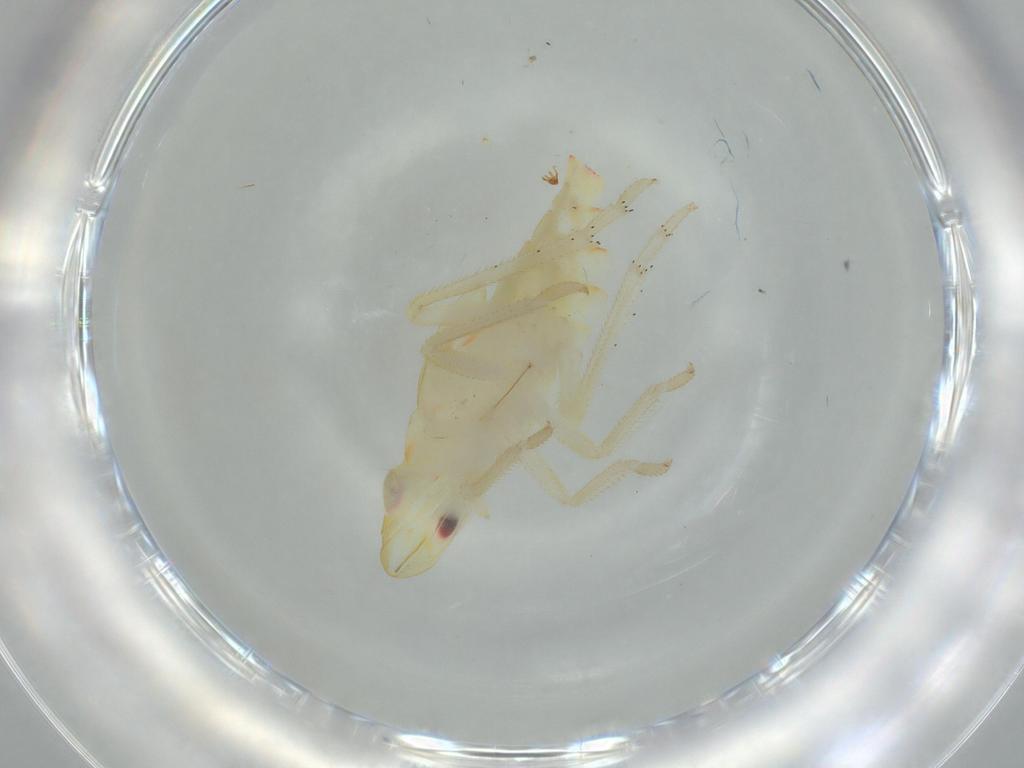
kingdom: Animalia
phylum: Arthropoda
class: Insecta
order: Hemiptera
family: Tropiduchidae
